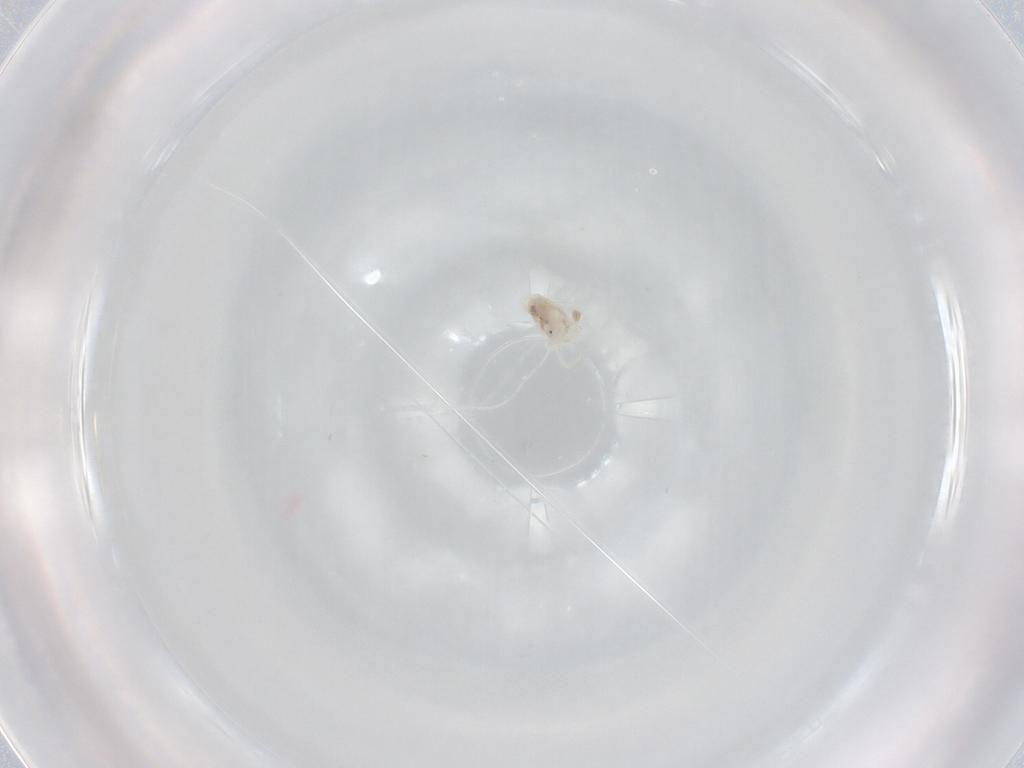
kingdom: Animalia
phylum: Arthropoda
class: Arachnida
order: Trombidiformes
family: Anystidae
